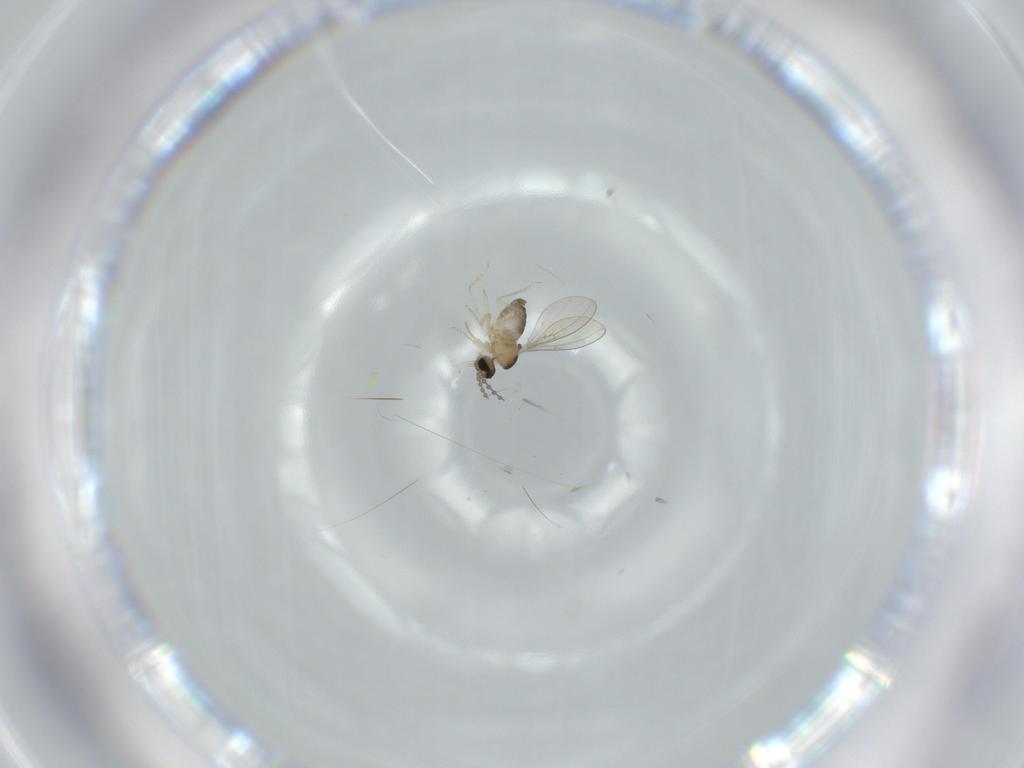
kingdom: Animalia
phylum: Arthropoda
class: Insecta
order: Diptera
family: Cecidomyiidae
